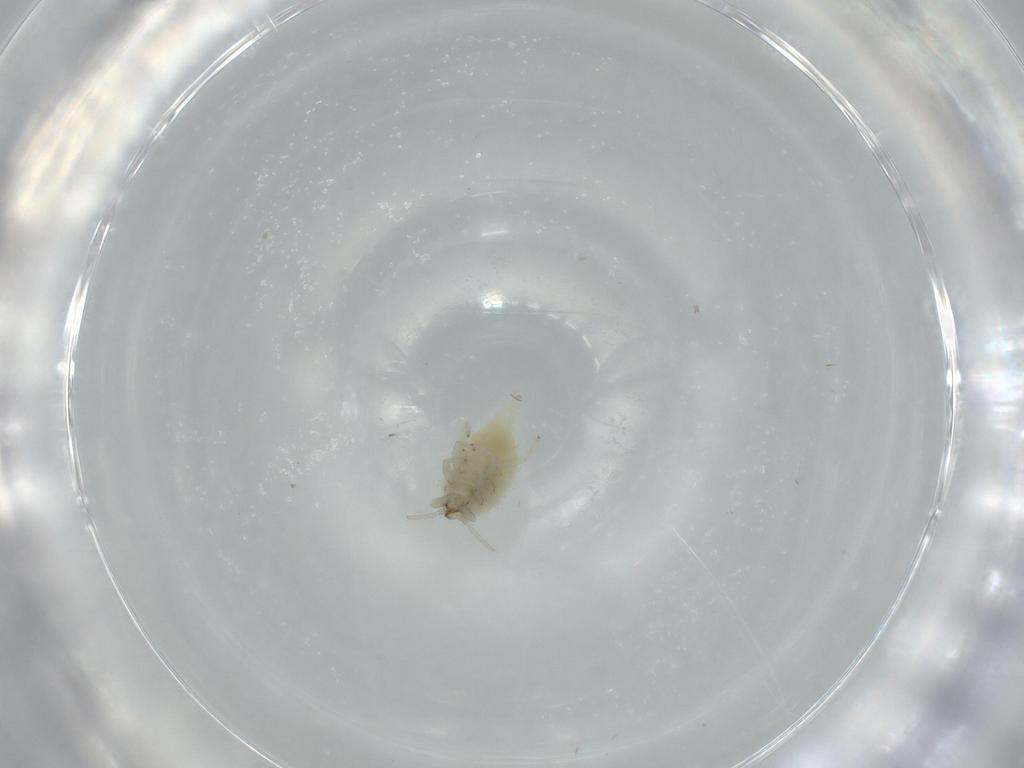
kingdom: Animalia
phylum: Arthropoda
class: Insecta
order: Neuroptera
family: Coniopterygidae
